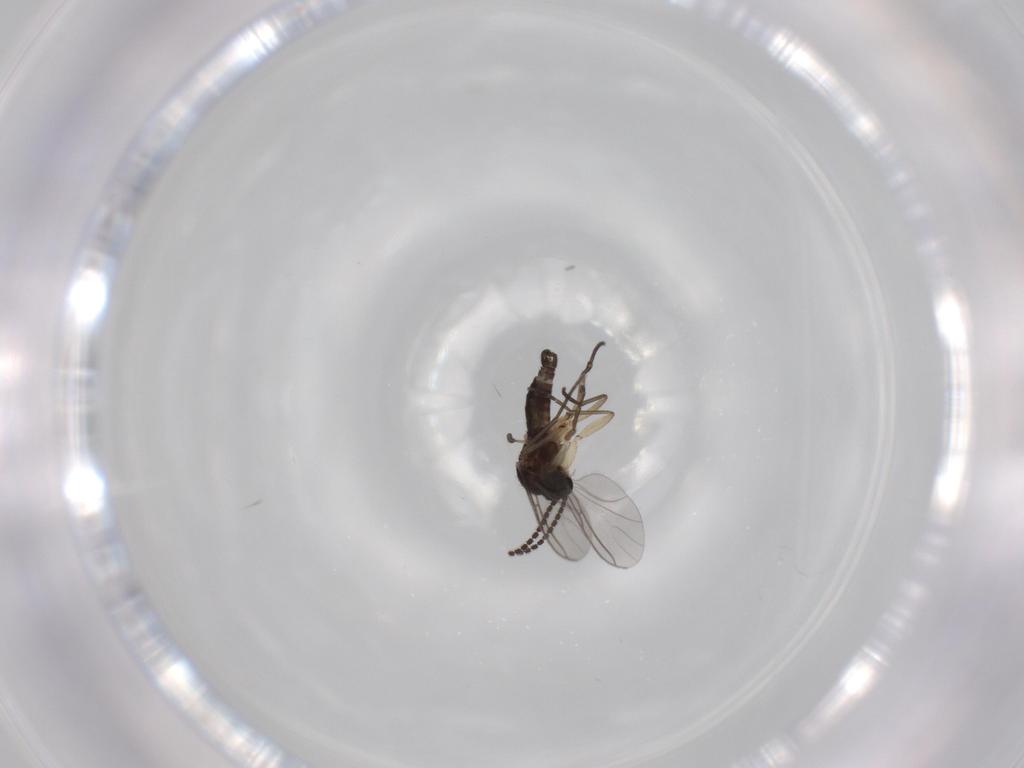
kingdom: Animalia
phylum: Arthropoda
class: Insecta
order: Diptera
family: Sciaridae
